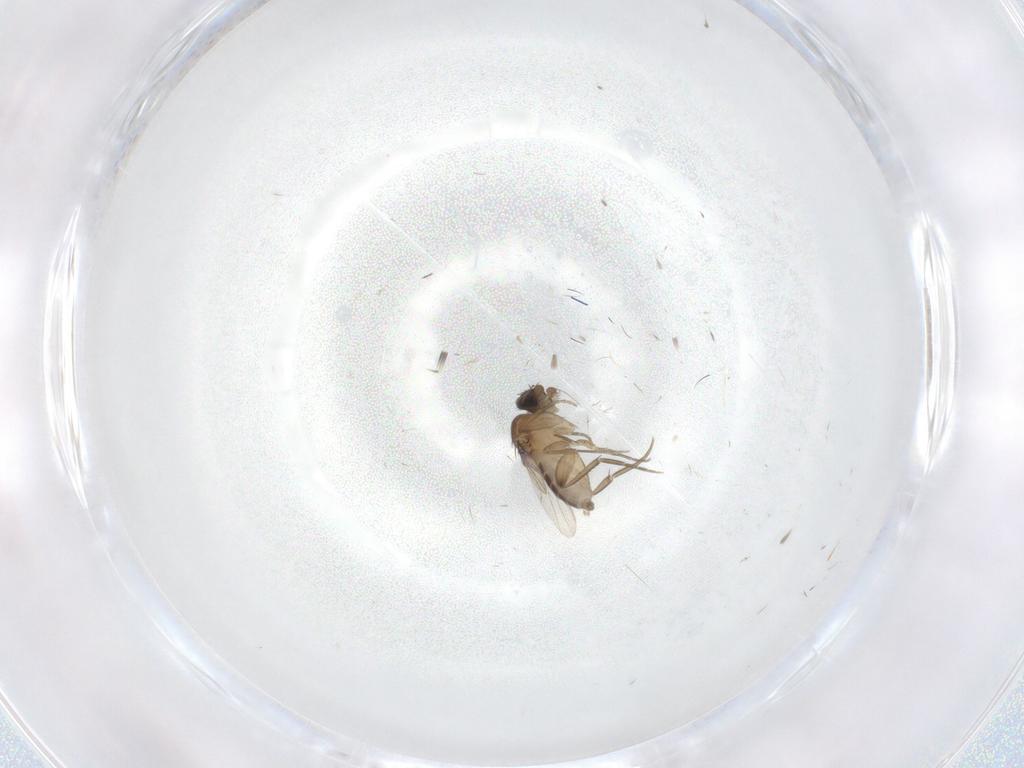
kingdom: Animalia
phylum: Arthropoda
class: Insecta
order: Diptera
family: Phoridae
